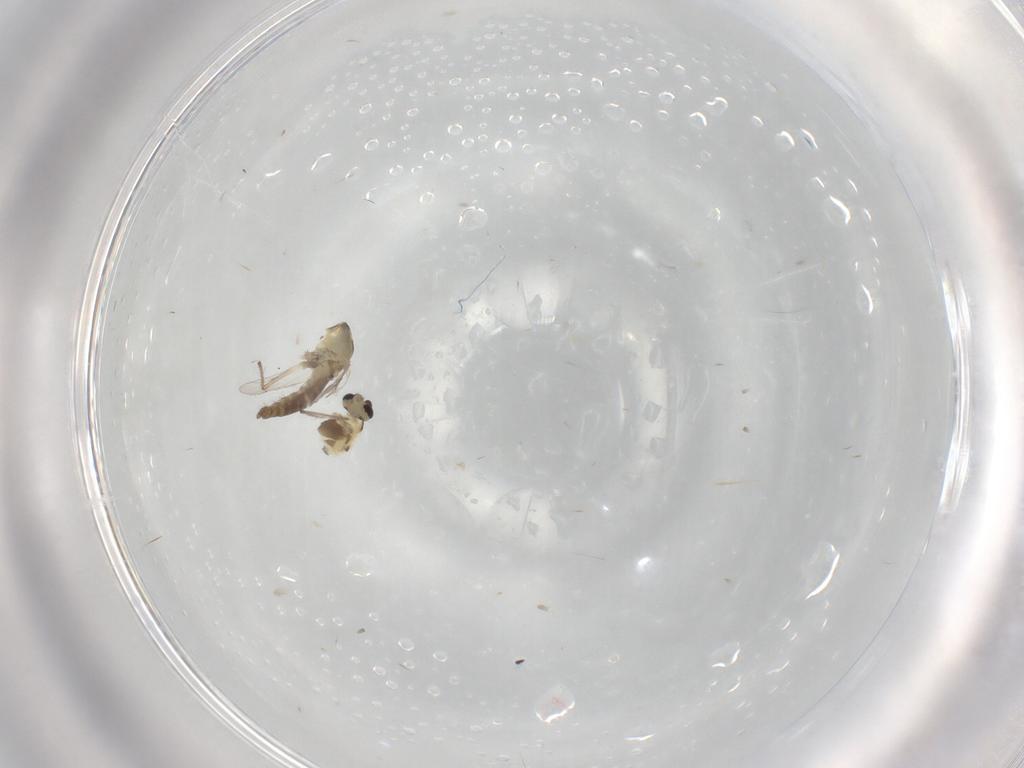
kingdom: Animalia
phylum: Arthropoda
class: Insecta
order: Diptera
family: Chironomidae
